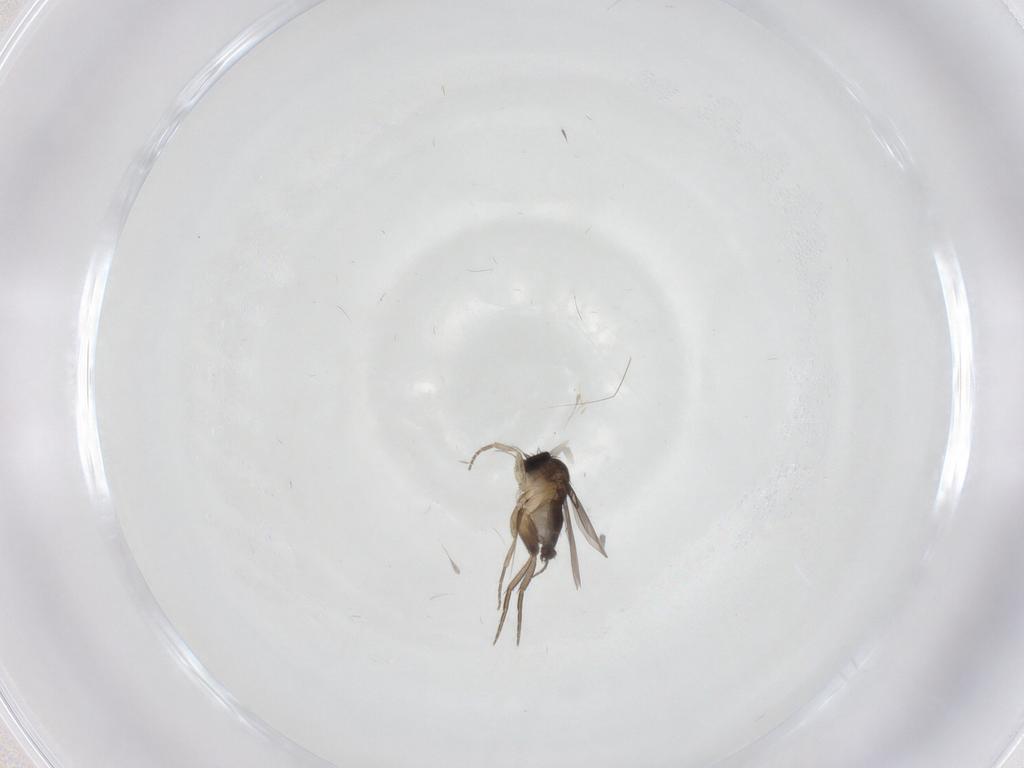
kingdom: Animalia
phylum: Arthropoda
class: Insecta
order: Diptera
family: Phoridae
